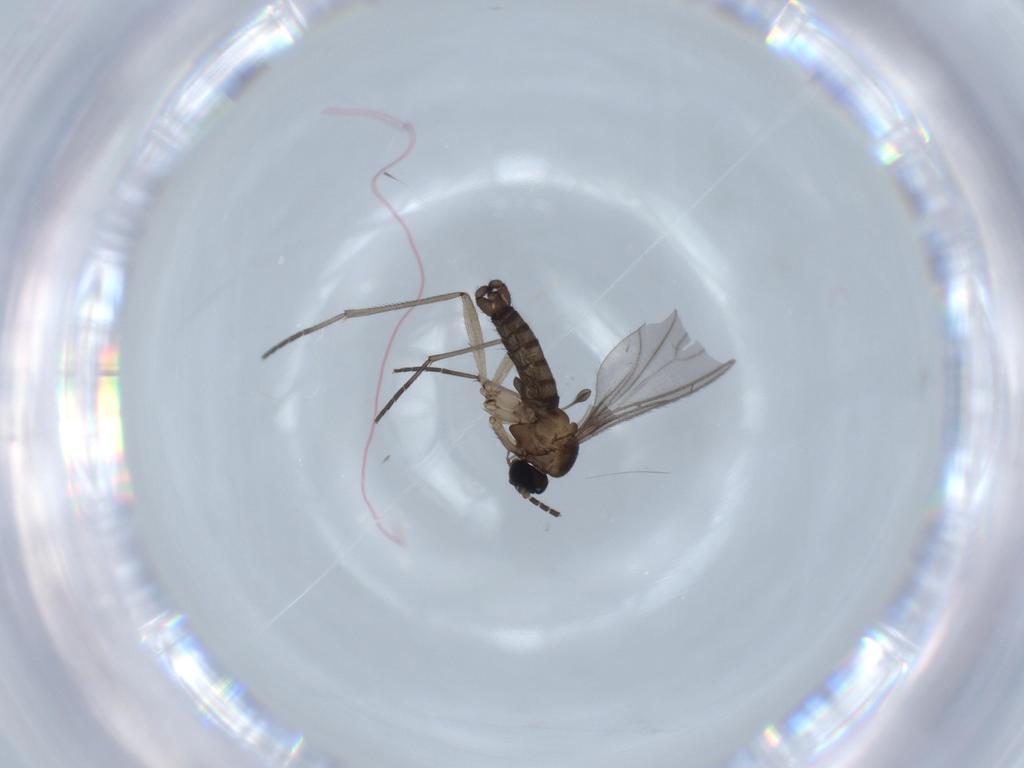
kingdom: Animalia
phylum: Arthropoda
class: Insecta
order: Diptera
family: Sciaridae
